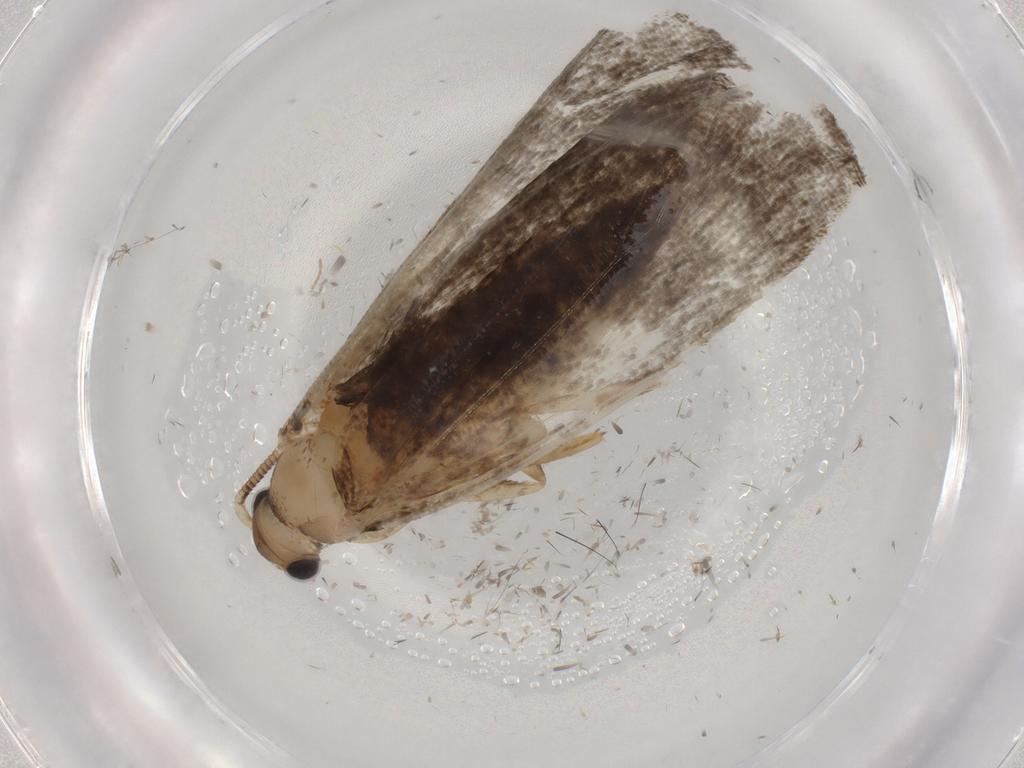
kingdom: Animalia
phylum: Arthropoda
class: Insecta
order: Lepidoptera
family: Tineidae
